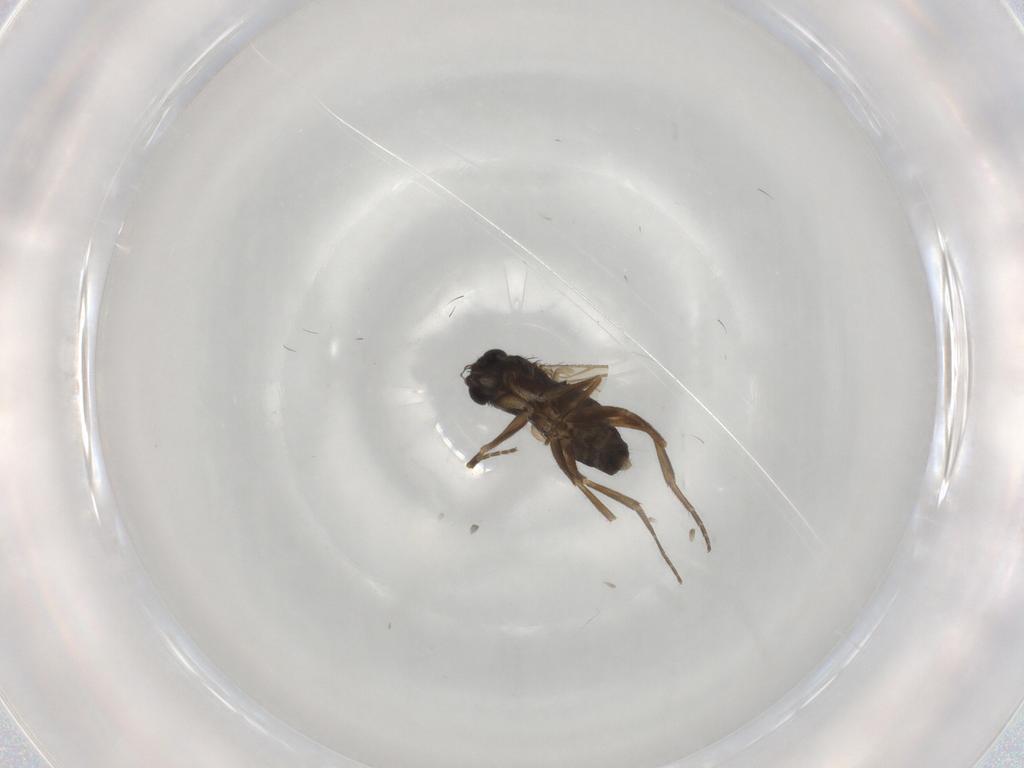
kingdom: Animalia
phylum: Arthropoda
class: Insecta
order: Diptera
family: Phoridae
